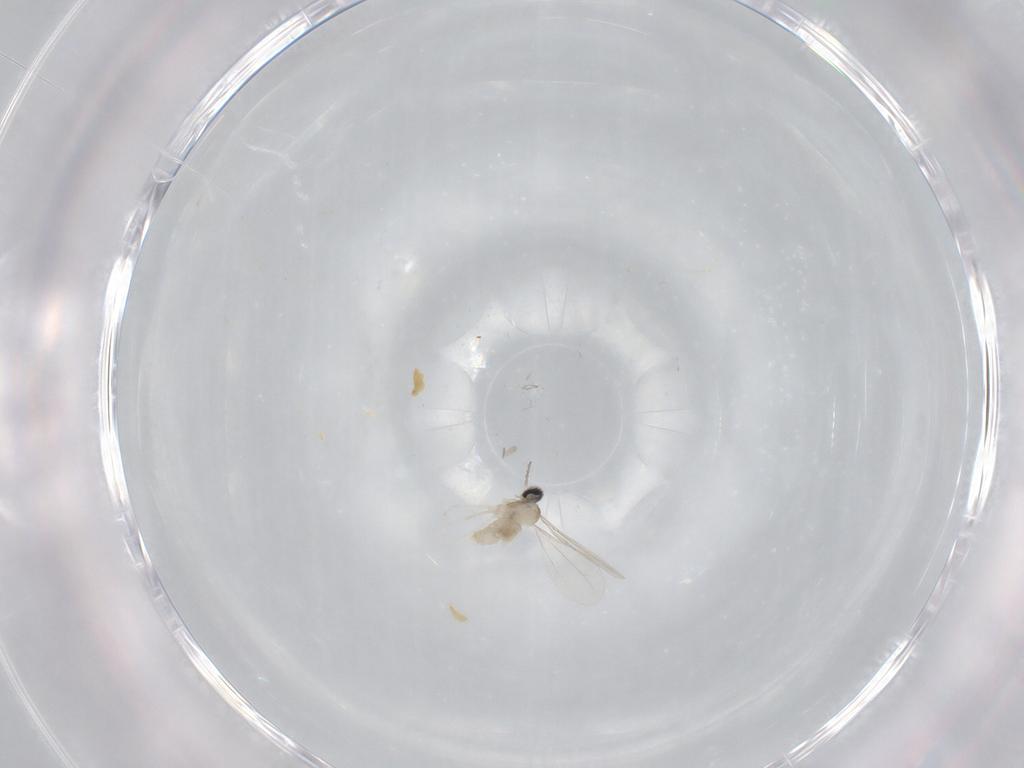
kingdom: Animalia
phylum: Arthropoda
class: Insecta
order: Diptera
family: Cecidomyiidae
